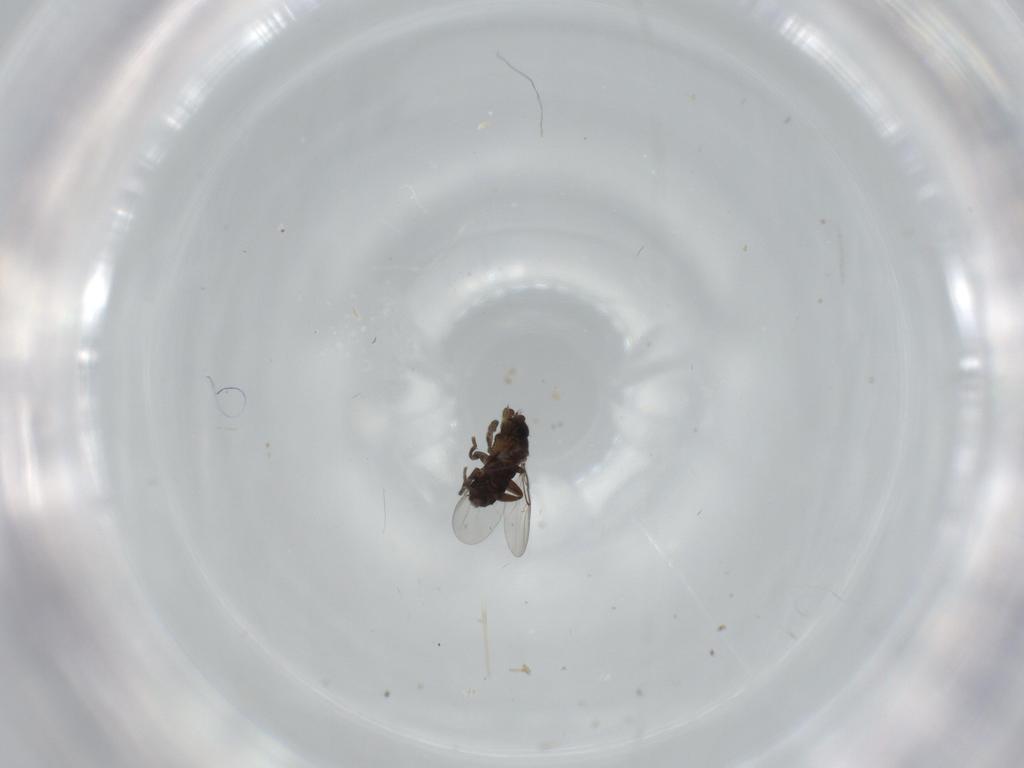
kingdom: Animalia
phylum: Arthropoda
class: Insecta
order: Diptera
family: Phoridae
